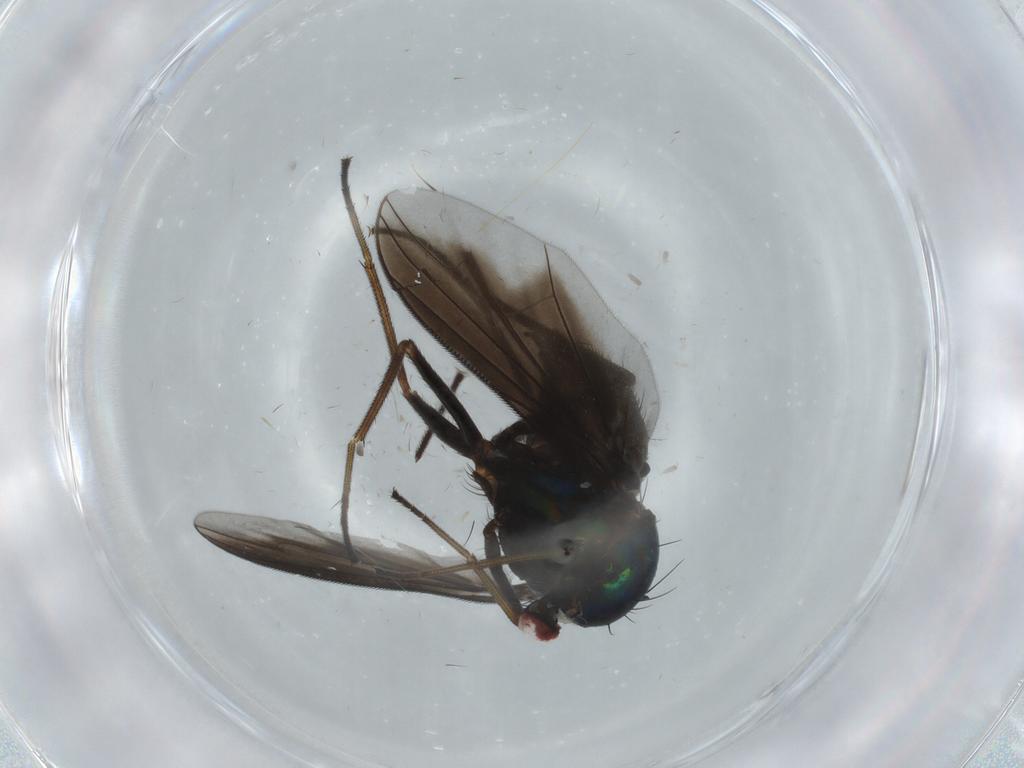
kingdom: Animalia
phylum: Arthropoda
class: Insecta
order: Diptera
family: Dolichopodidae
